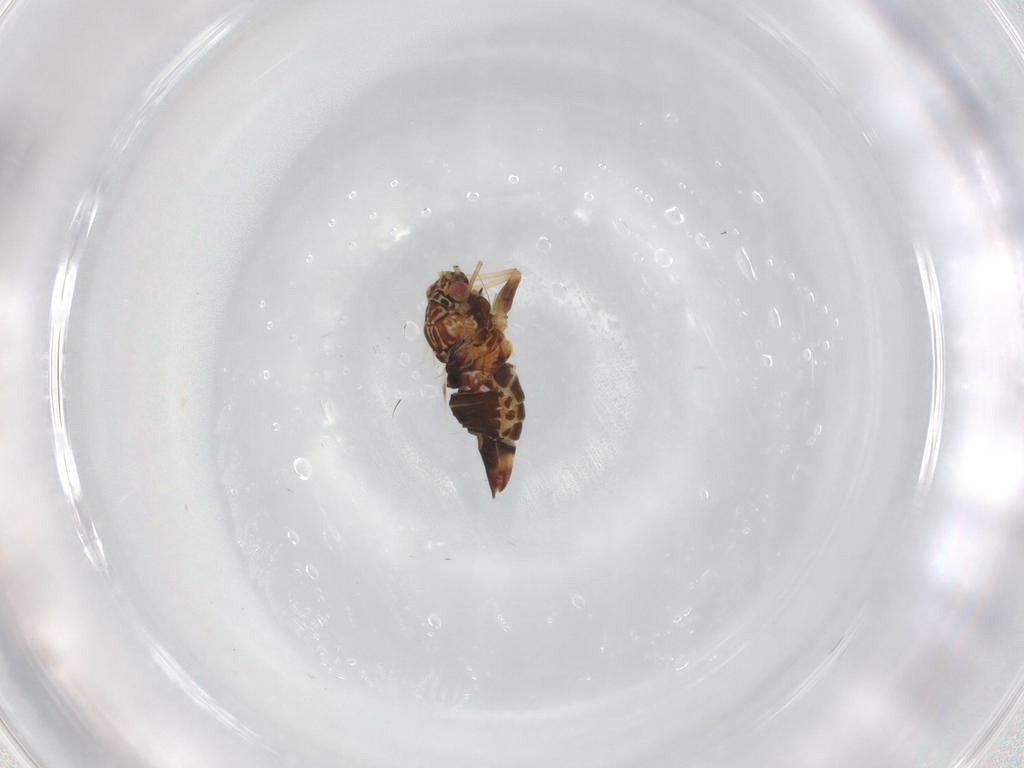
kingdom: Animalia
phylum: Arthropoda
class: Insecta
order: Hemiptera
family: Psyllidae
